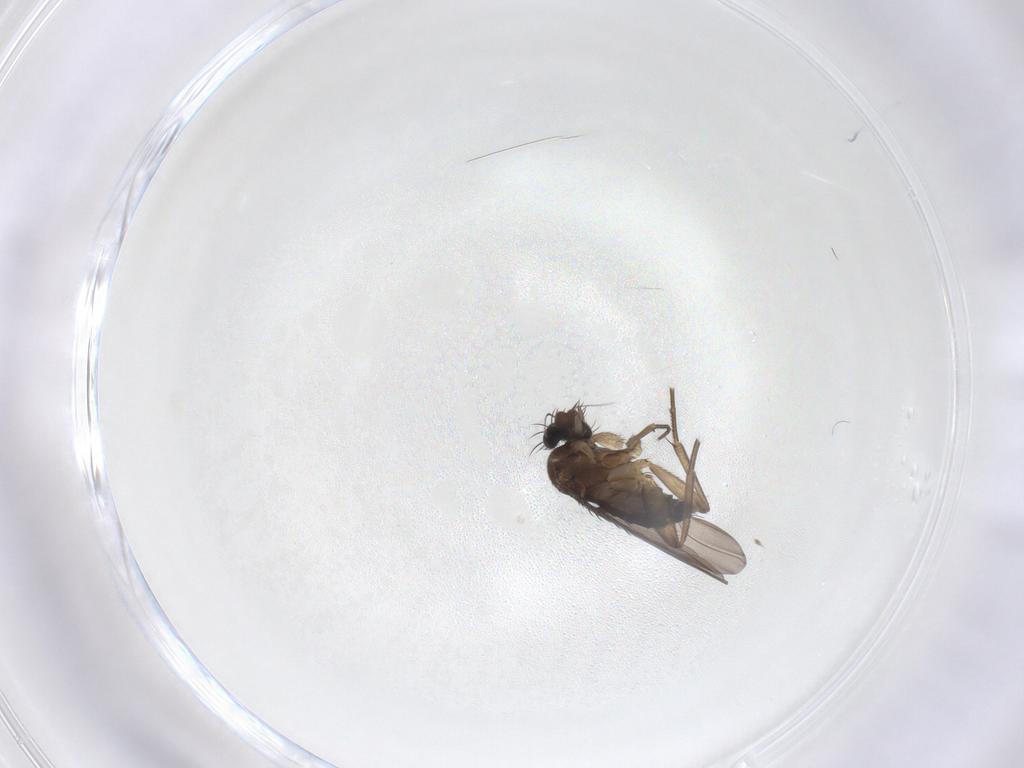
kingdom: Animalia
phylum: Arthropoda
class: Insecta
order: Diptera
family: Phoridae
